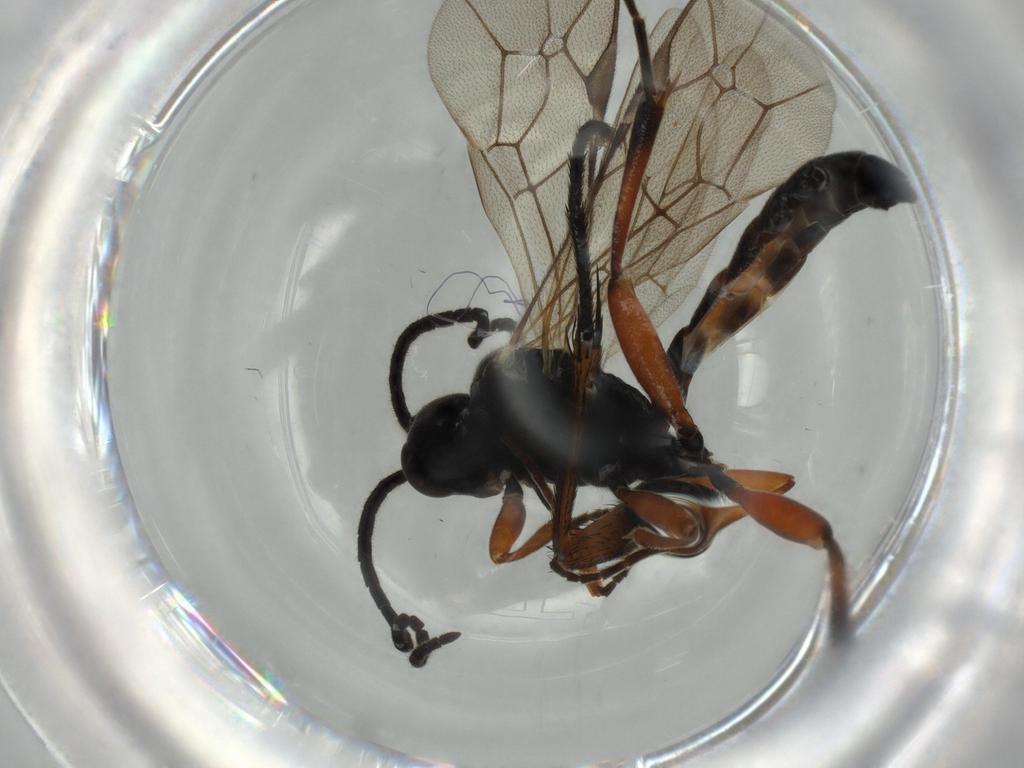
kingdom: Animalia
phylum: Arthropoda
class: Insecta
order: Hymenoptera
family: Ichneumonidae
